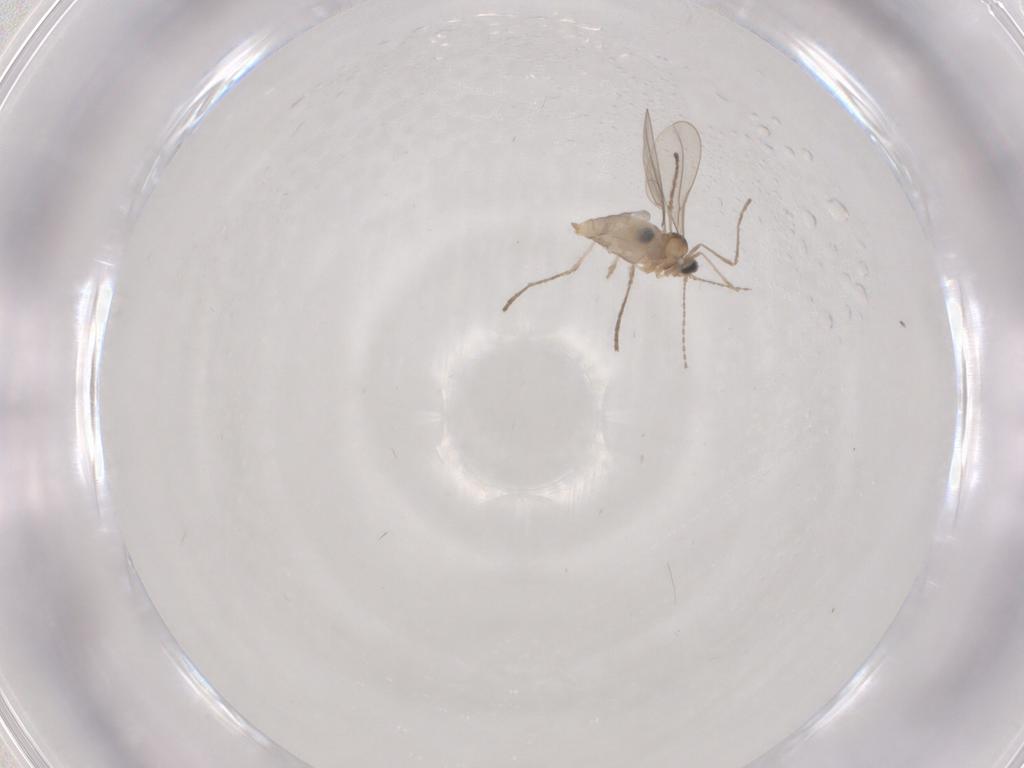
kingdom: Animalia
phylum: Arthropoda
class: Insecta
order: Diptera
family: Cecidomyiidae
